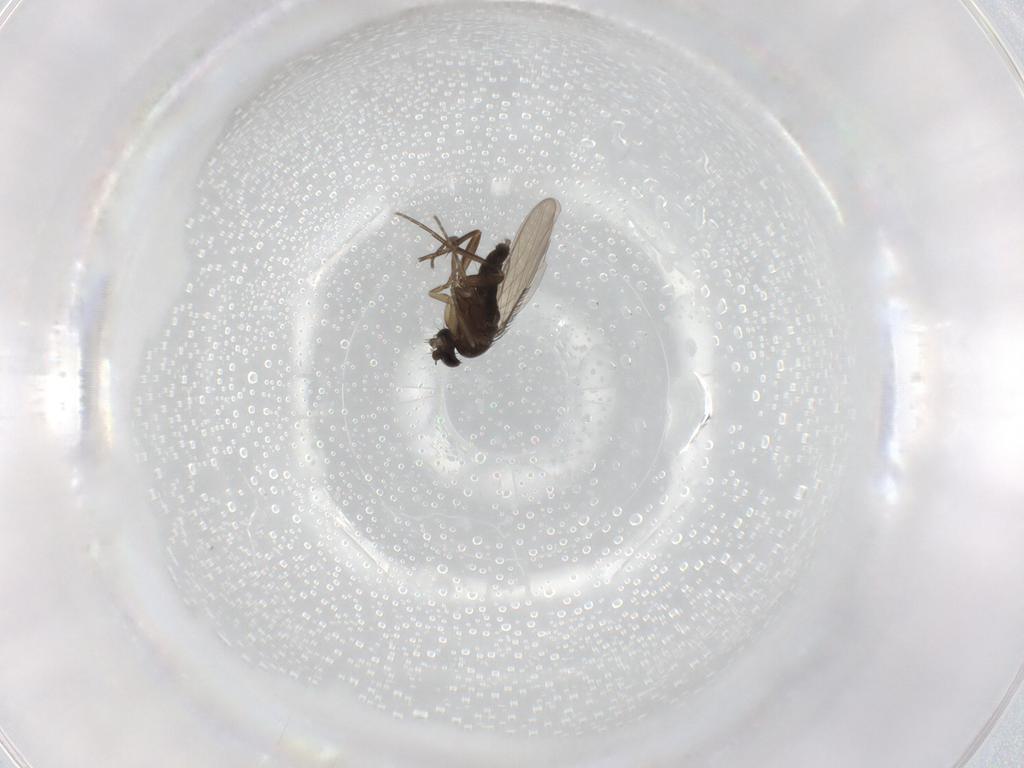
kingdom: Animalia
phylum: Arthropoda
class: Insecta
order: Diptera
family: Phoridae
